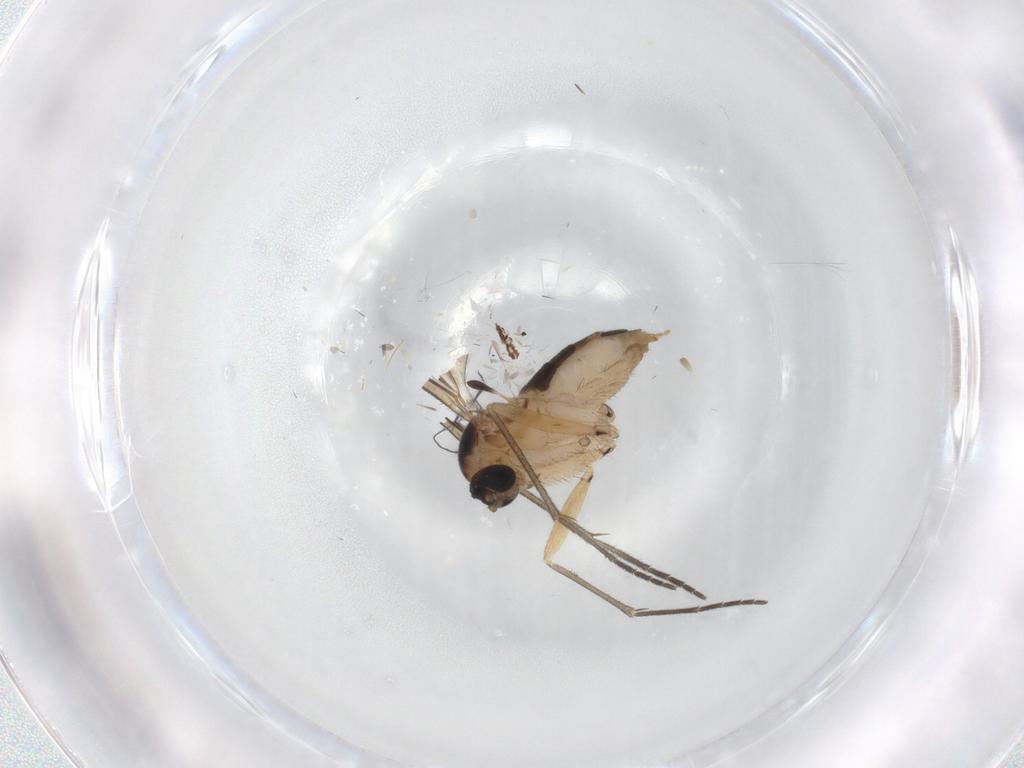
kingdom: Animalia
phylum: Arthropoda
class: Insecta
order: Diptera
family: Sciaridae
